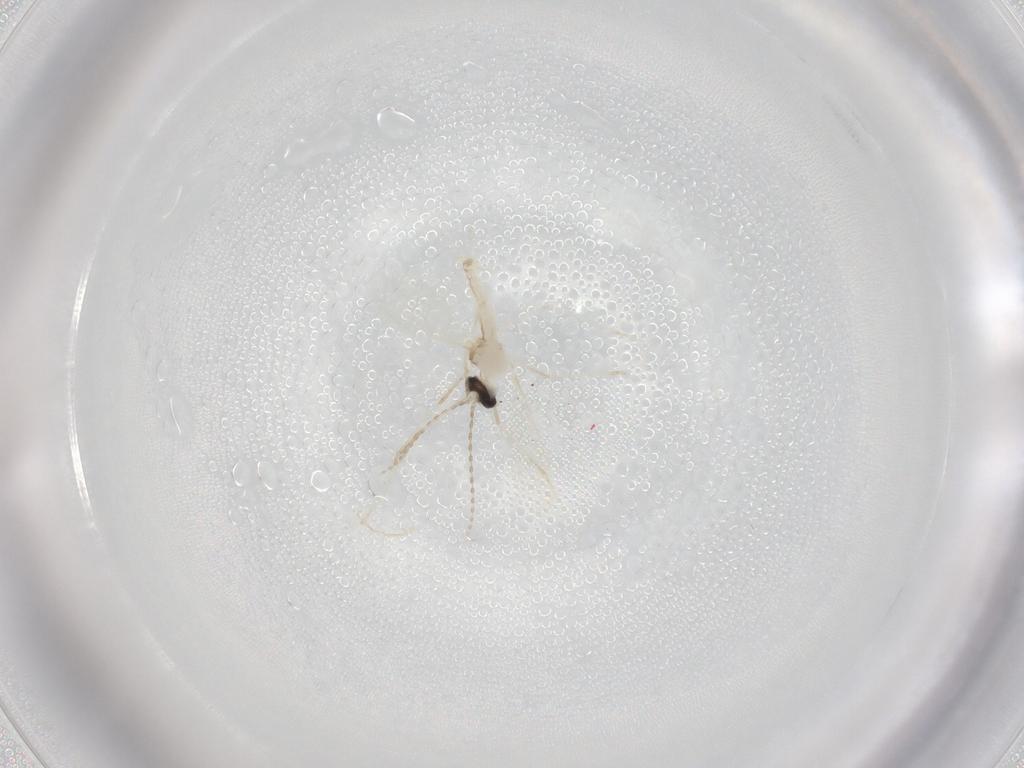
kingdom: Animalia
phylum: Arthropoda
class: Insecta
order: Diptera
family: Cecidomyiidae
